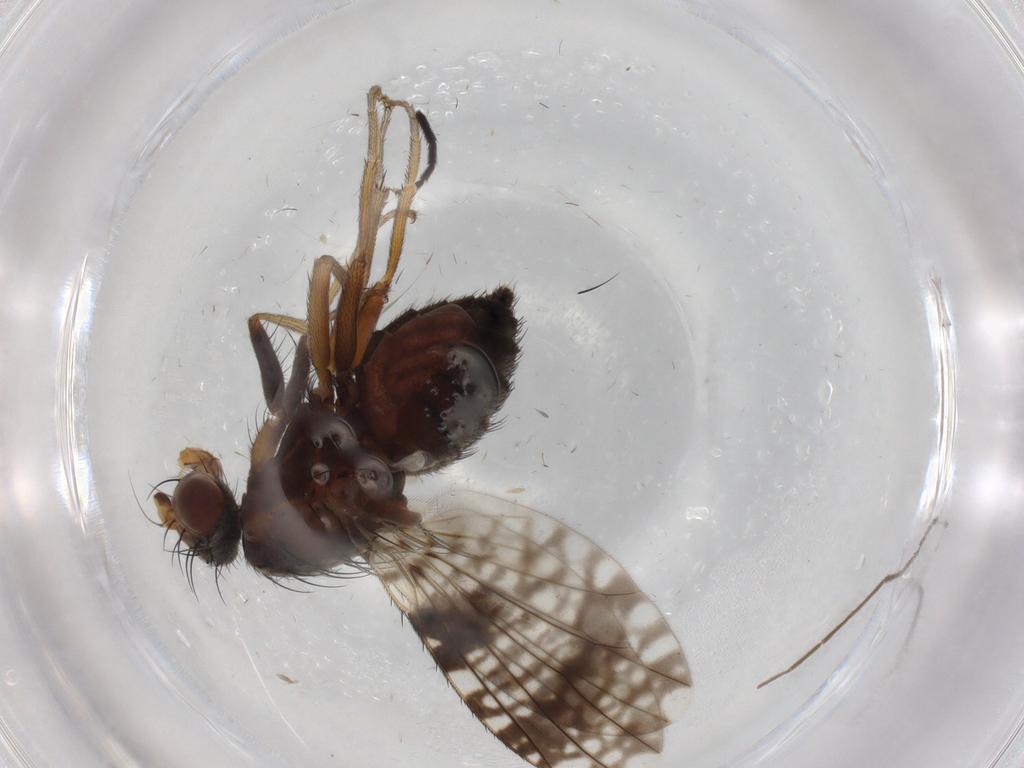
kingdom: Animalia
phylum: Arthropoda
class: Insecta
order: Diptera
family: Tephritidae
